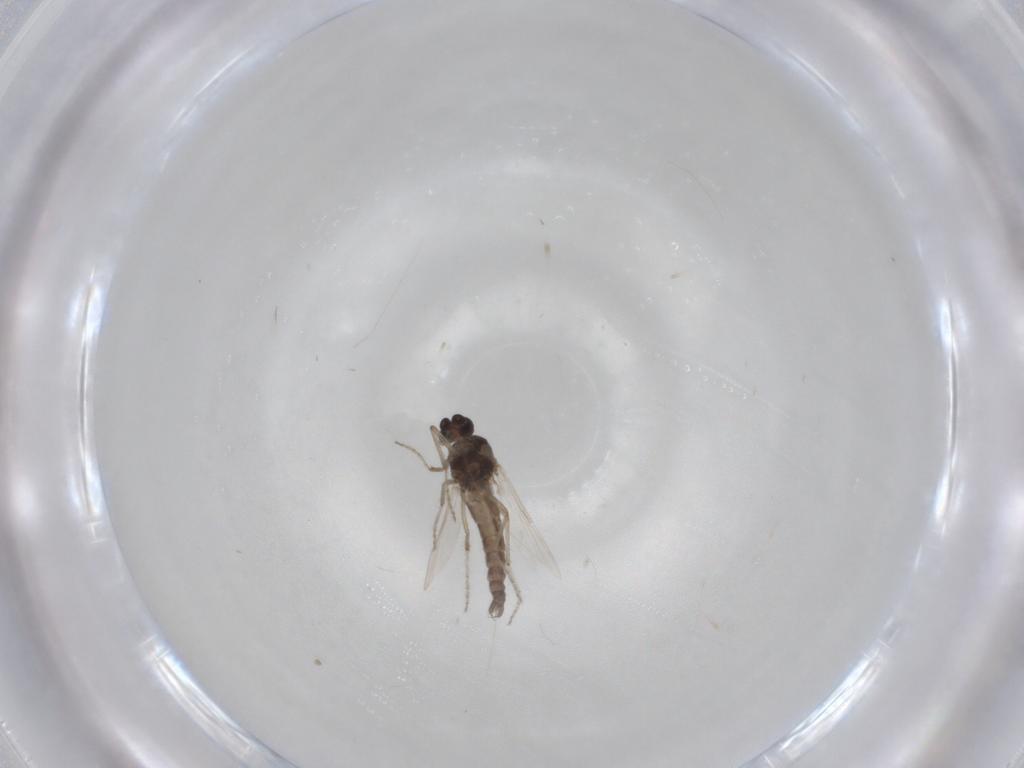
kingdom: Animalia
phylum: Arthropoda
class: Insecta
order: Diptera
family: Ceratopogonidae
